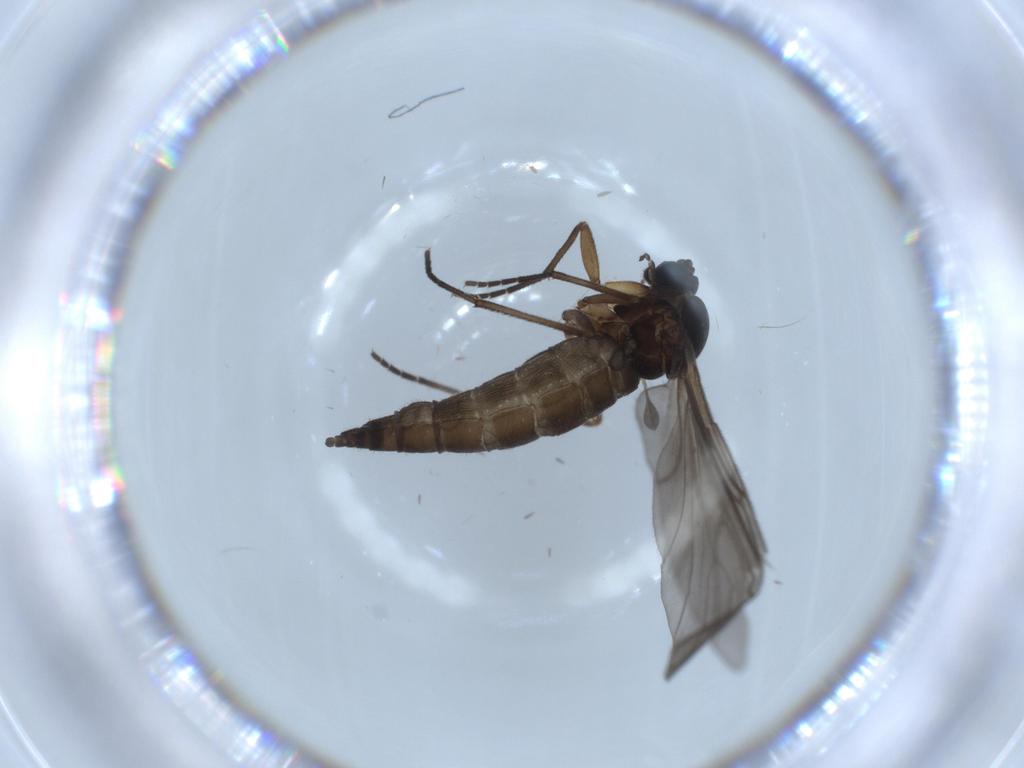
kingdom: Animalia
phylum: Arthropoda
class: Insecta
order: Diptera
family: Sciaridae
